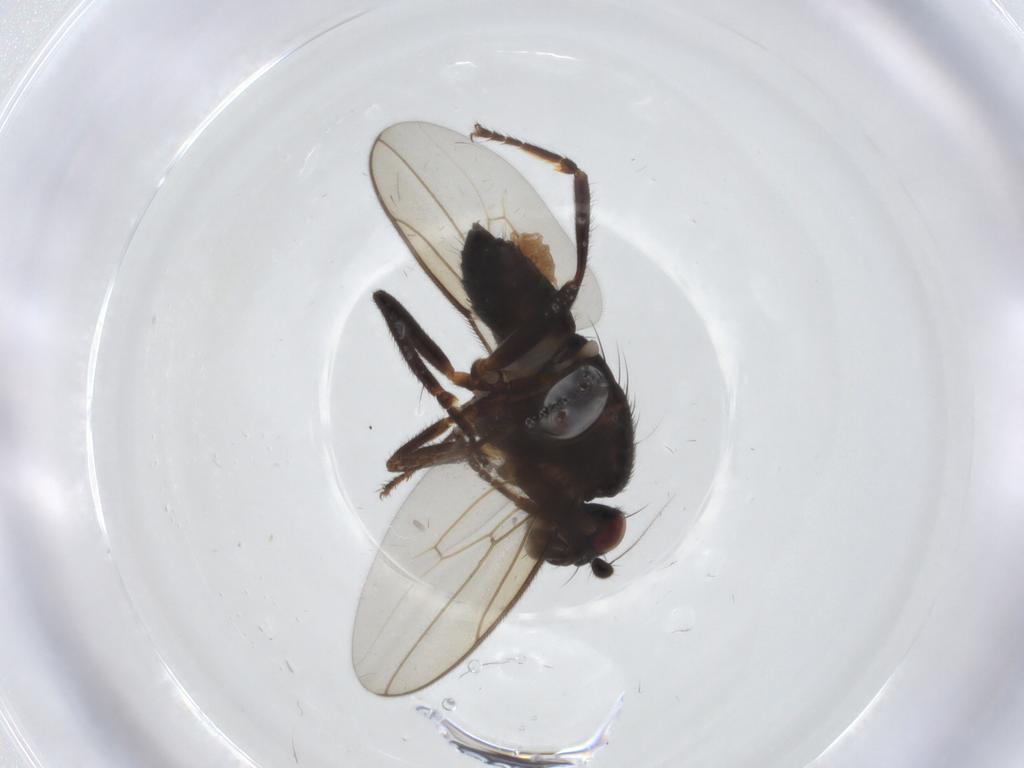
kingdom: Animalia
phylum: Arthropoda
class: Insecta
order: Diptera
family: Sphaeroceridae
